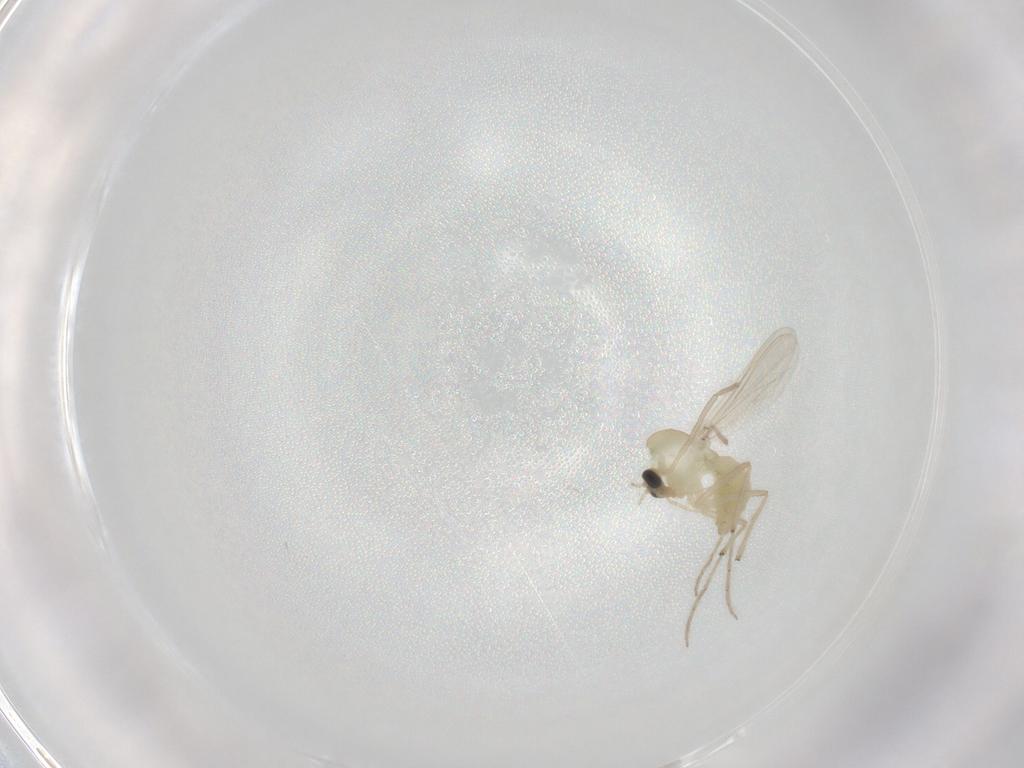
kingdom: Animalia
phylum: Arthropoda
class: Insecta
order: Diptera
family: Chironomidae
